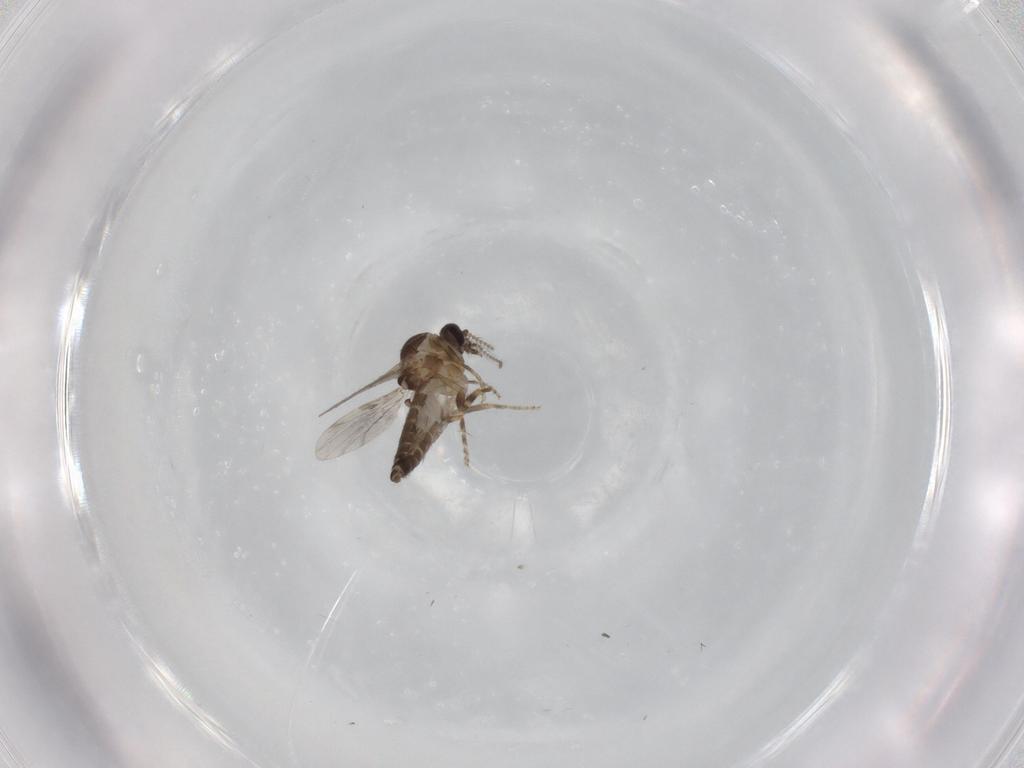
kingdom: Animalia
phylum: Arthropoda
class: Insecta
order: Diptera
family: Ceratopogonidae
